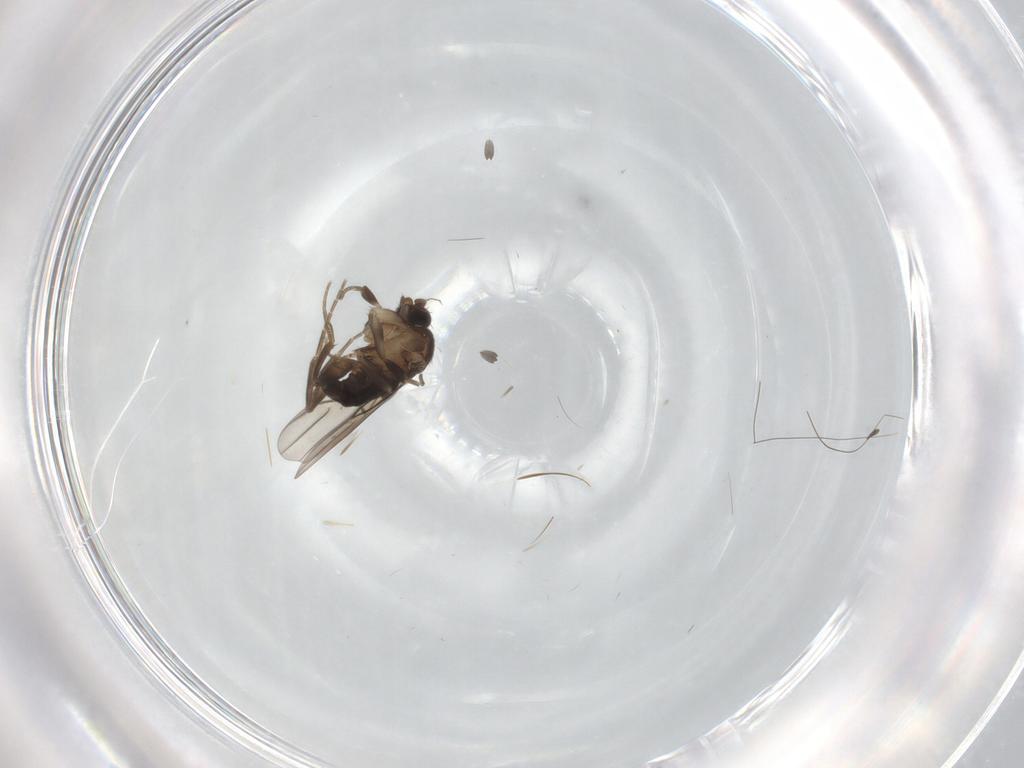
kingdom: Animalia
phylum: Arthropoda
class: Insecta
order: Diptera
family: Phoridae
